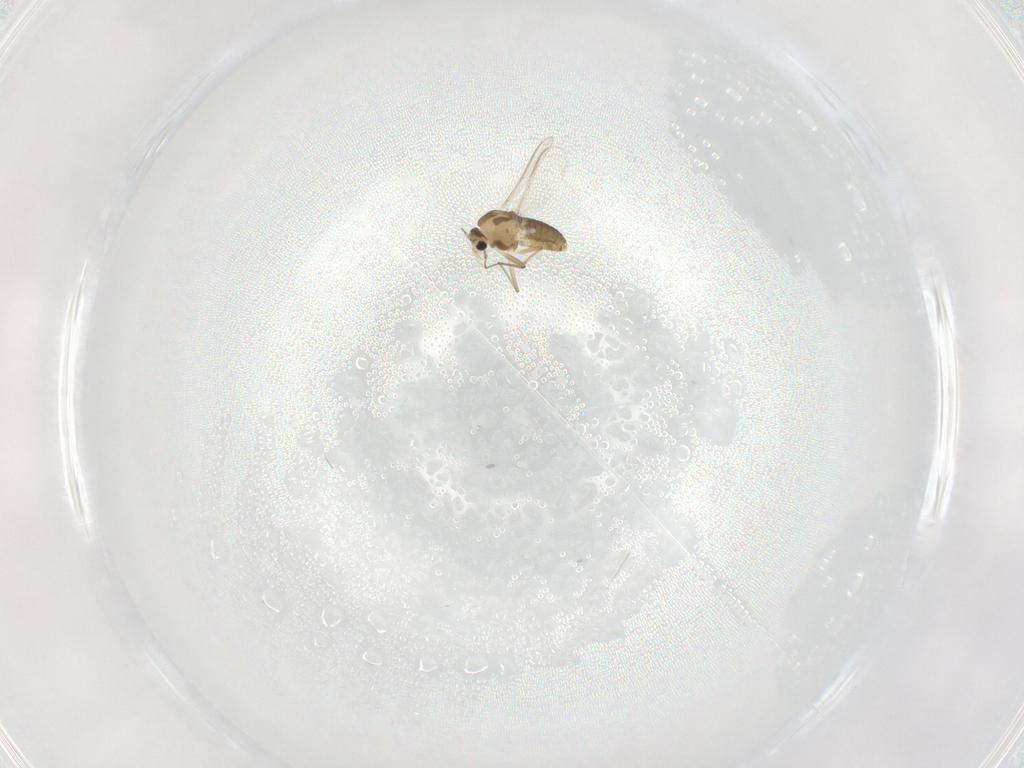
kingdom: Animalia
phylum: Arthropoda
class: Insecta
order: Diptera
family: Chironomidae
